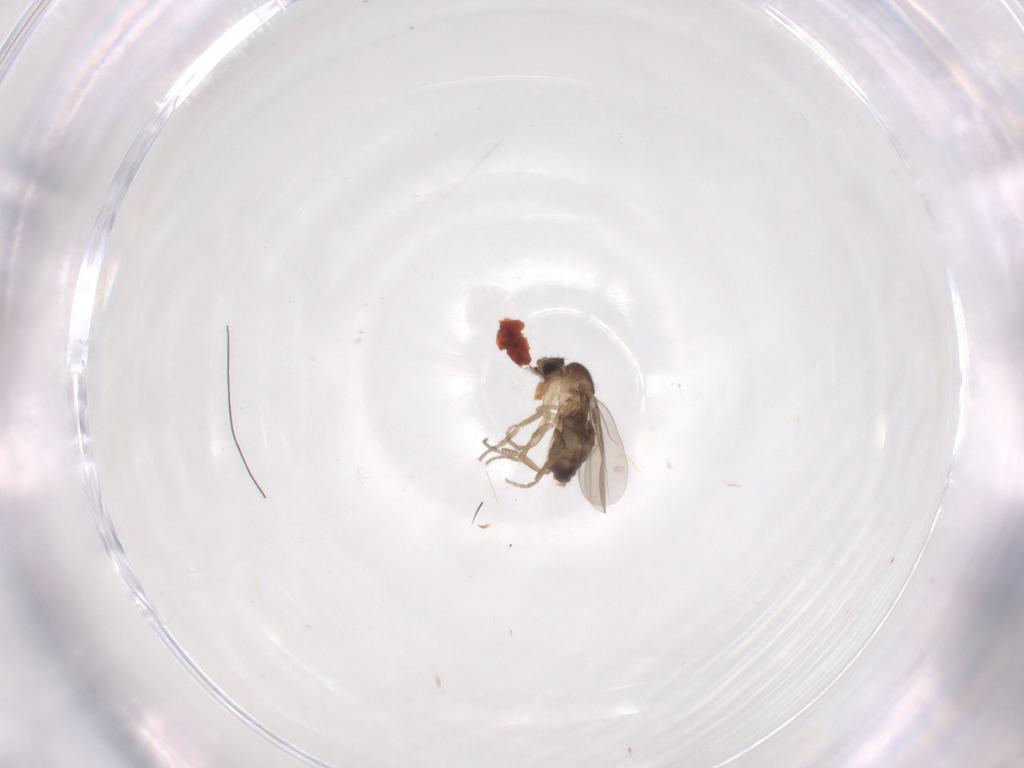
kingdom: Animalia
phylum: Arthropoda
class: Insecta
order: Diptera
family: Phoridae
